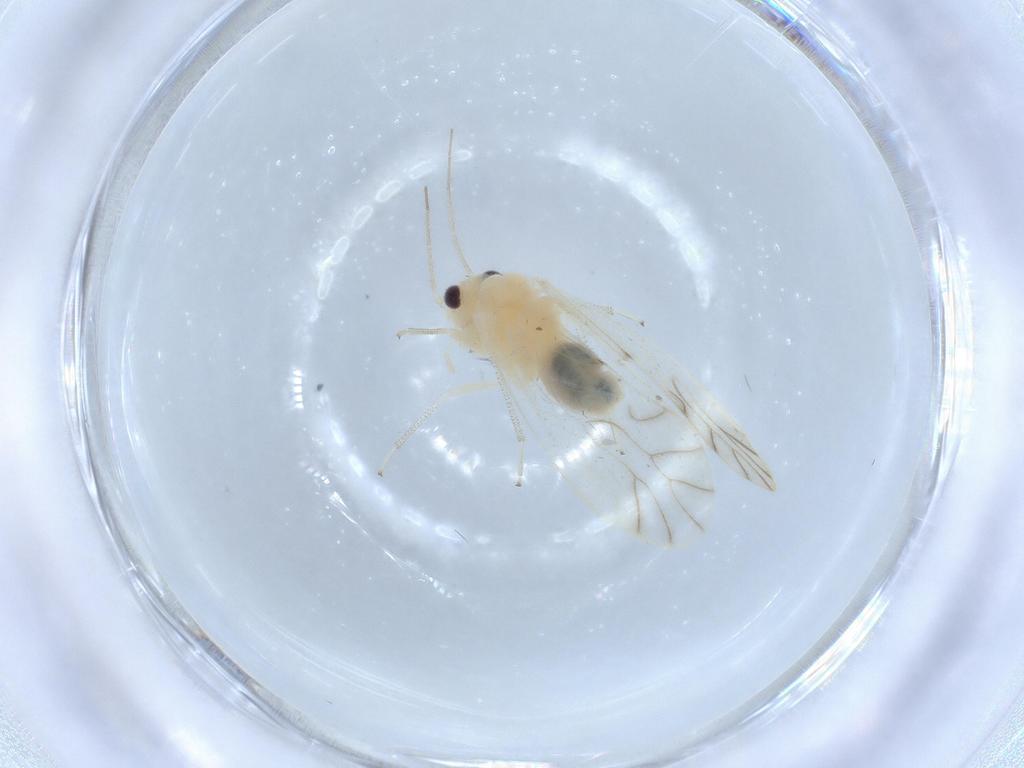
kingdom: Animalia
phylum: Arthropoda
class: Insecta
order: Psocodea
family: Caeciliusidae
